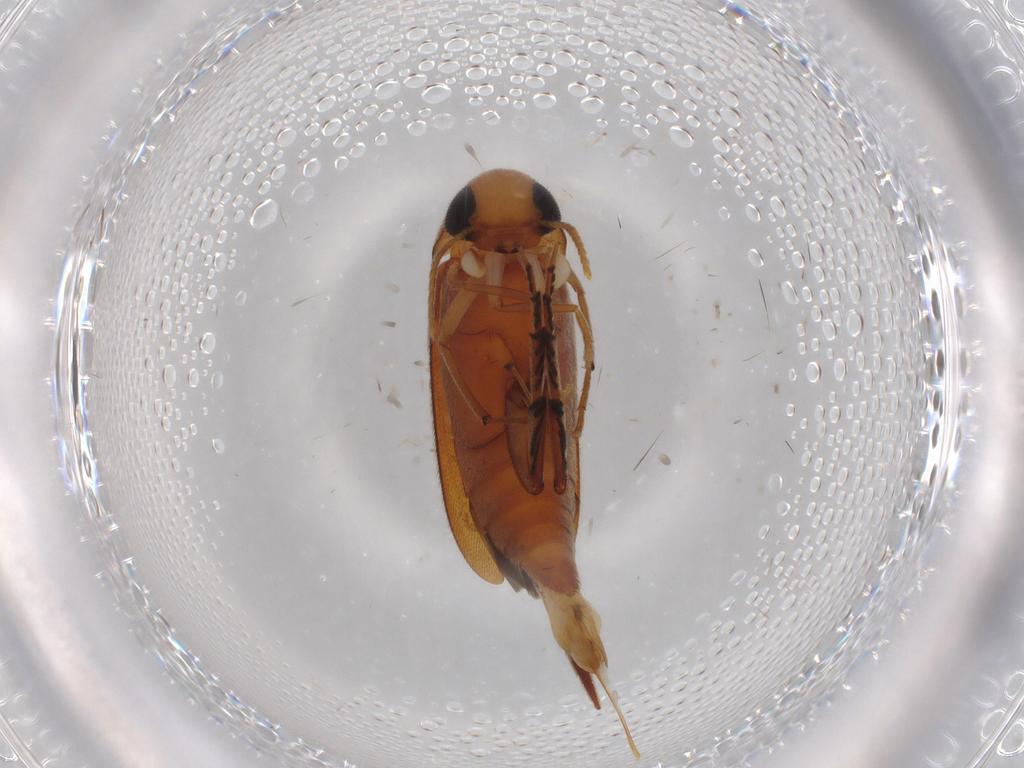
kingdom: Animalia
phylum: Arthropoda
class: Insecta
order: Coleoptera
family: Mordellidae
